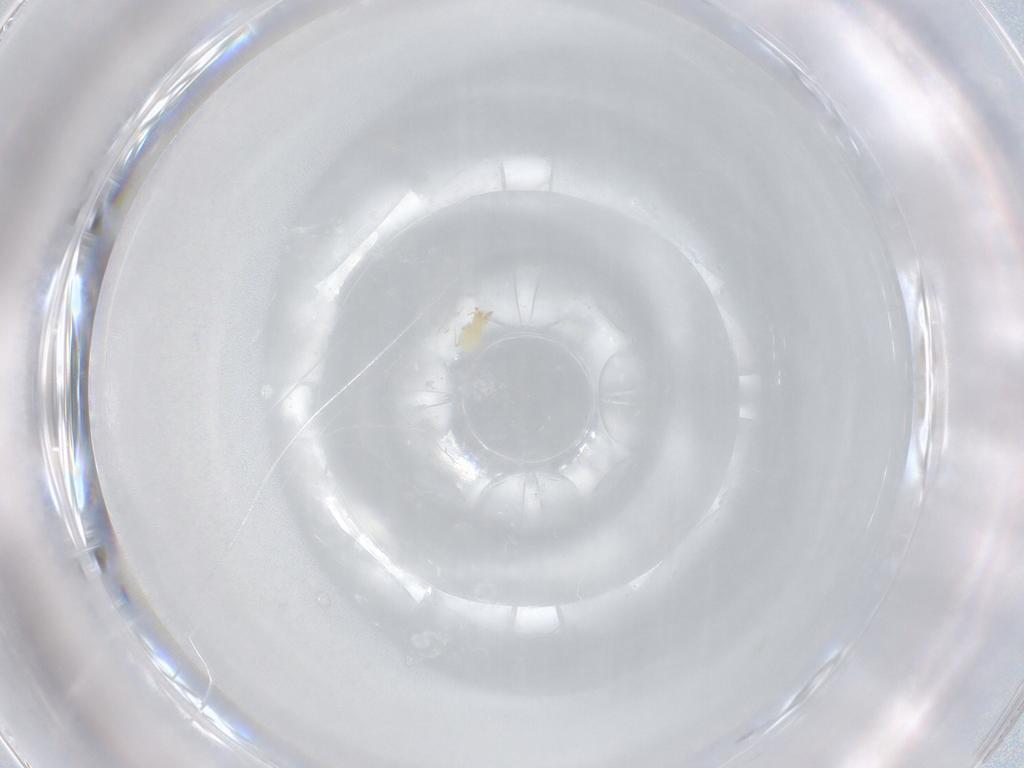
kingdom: Animalia
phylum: Arthropoda
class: Arachnida
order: Mesostigmata
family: Phytoseiidae
